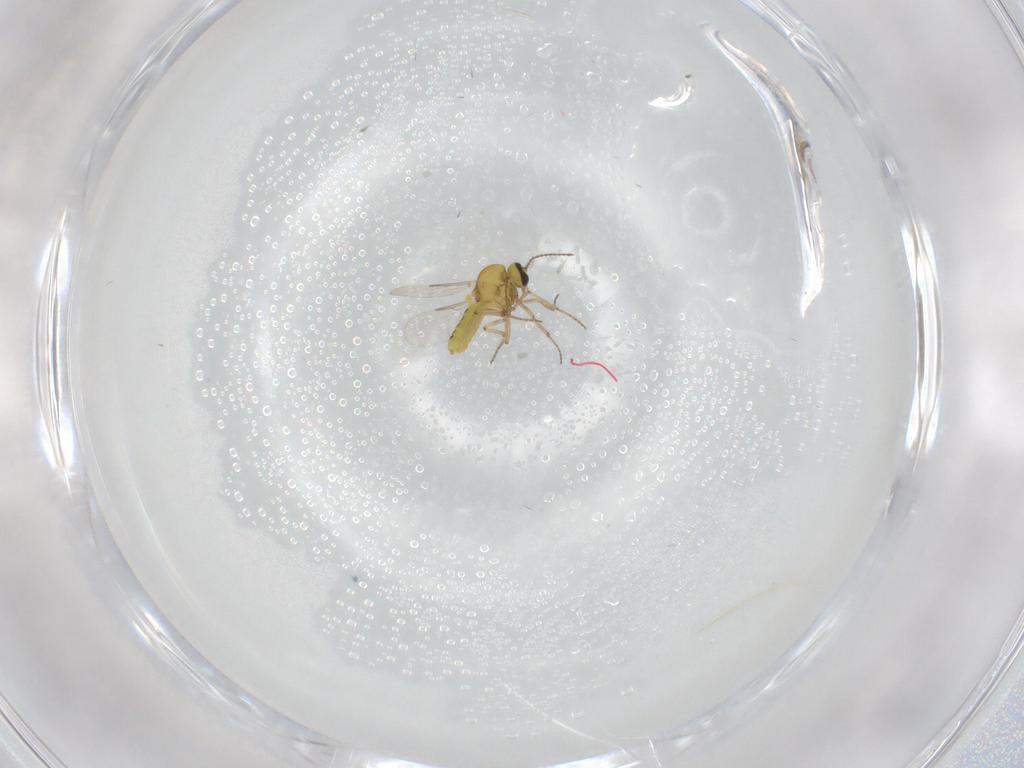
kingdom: Animalia
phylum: Arthropoda
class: Insecta
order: Diptera
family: Ceratopogonidae
